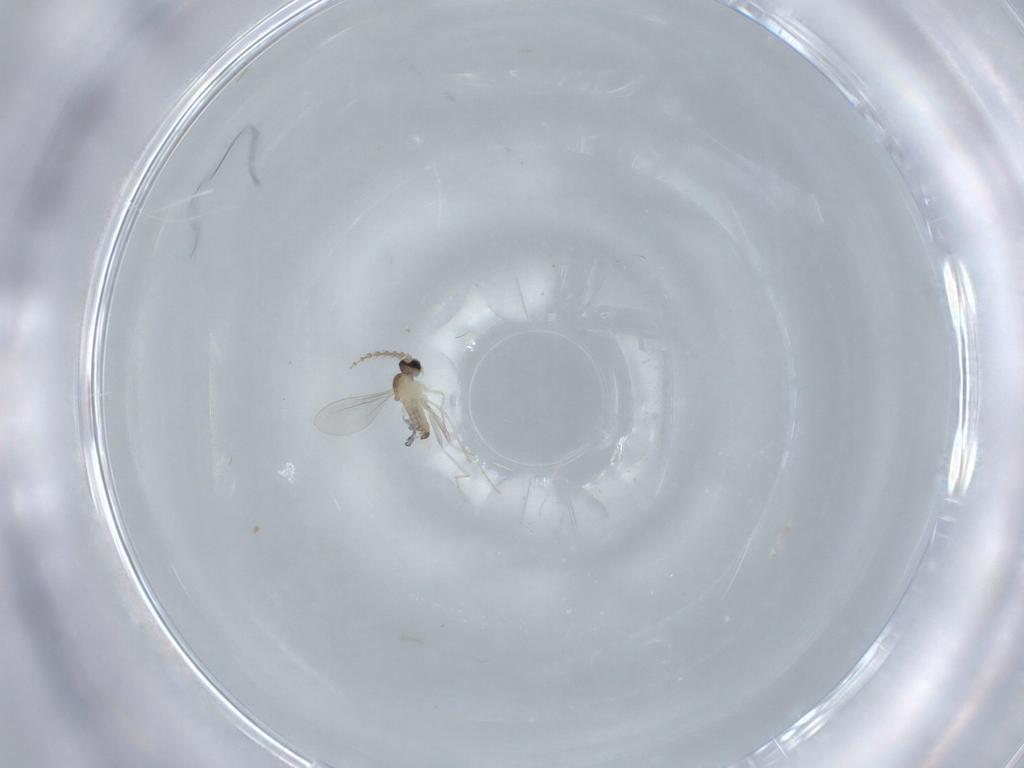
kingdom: Animalia
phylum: Arthropoda
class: Insecta
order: Diptera
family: Cecidomyiidae
